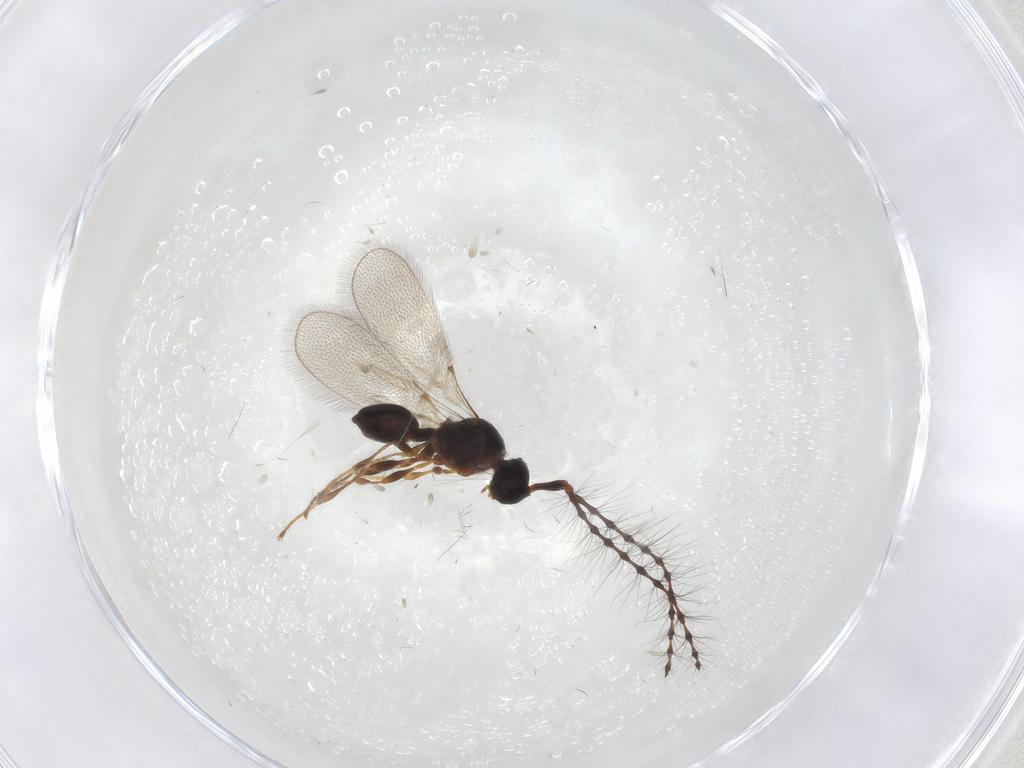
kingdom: Animalia
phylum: Arthropoda
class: Insecta
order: Hymenoptera
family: Diapriidae
